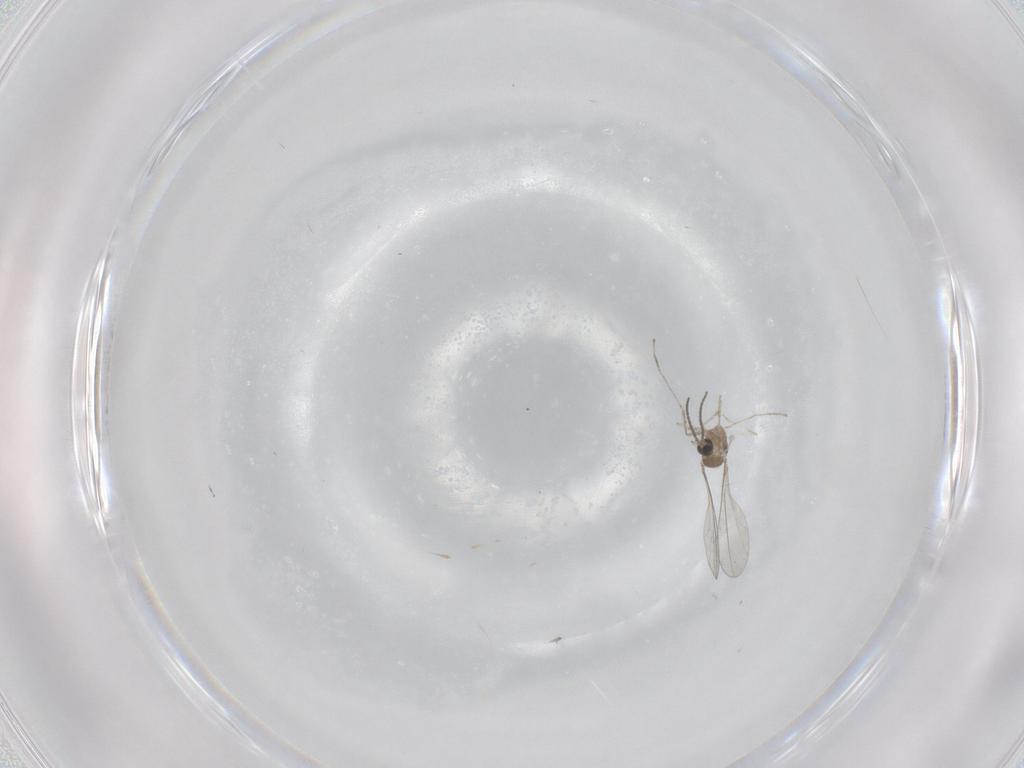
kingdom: Animalia
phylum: Arthropoda
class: Insecta
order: Diptera
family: Cecidomyiidae
